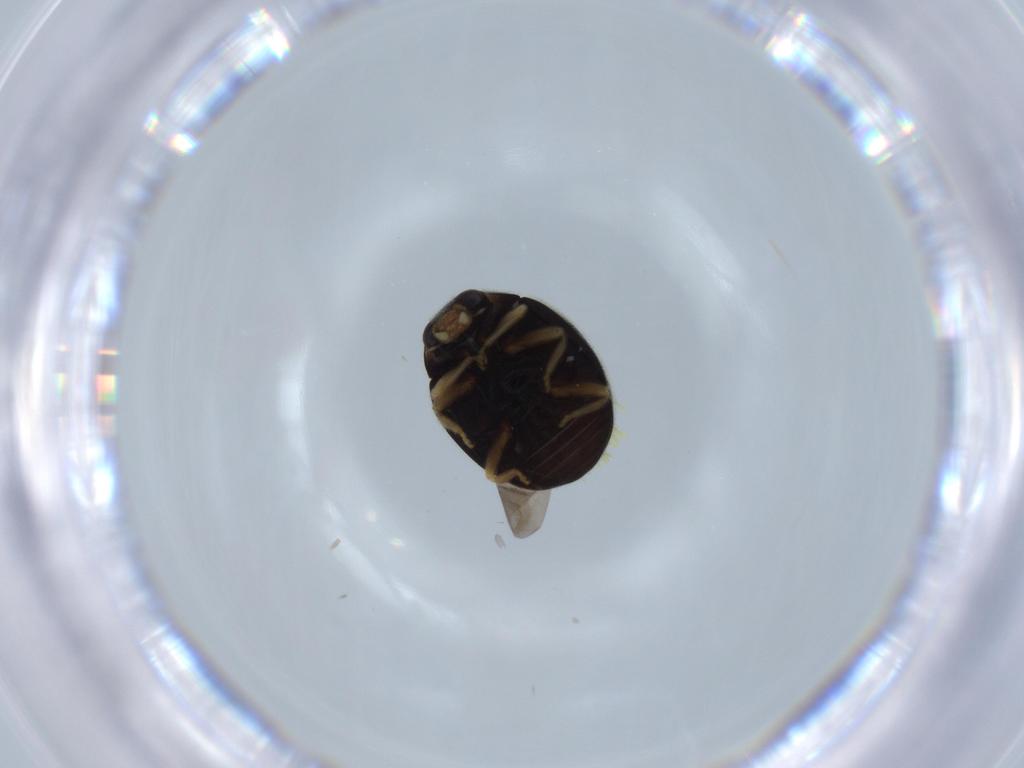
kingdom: Animalia
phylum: Arthropoda
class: Insecta
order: Coleoptera
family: Coccinellidae
